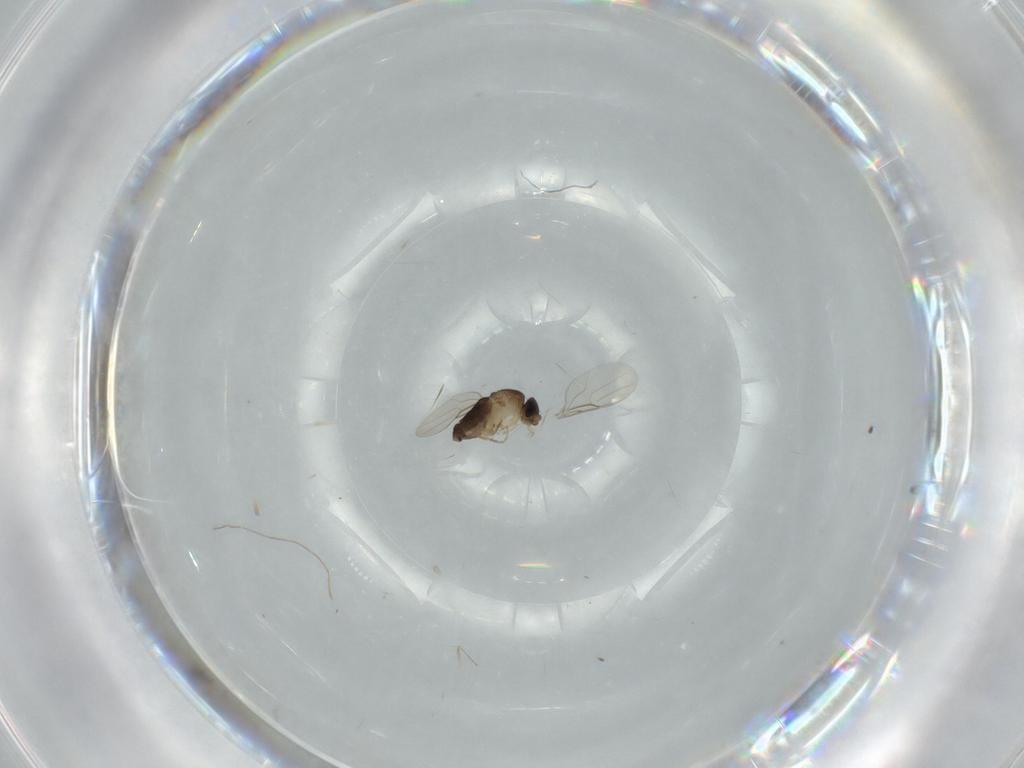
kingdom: Animalia
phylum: Arthropoda
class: Insecta
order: Diptera
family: Phoridae
